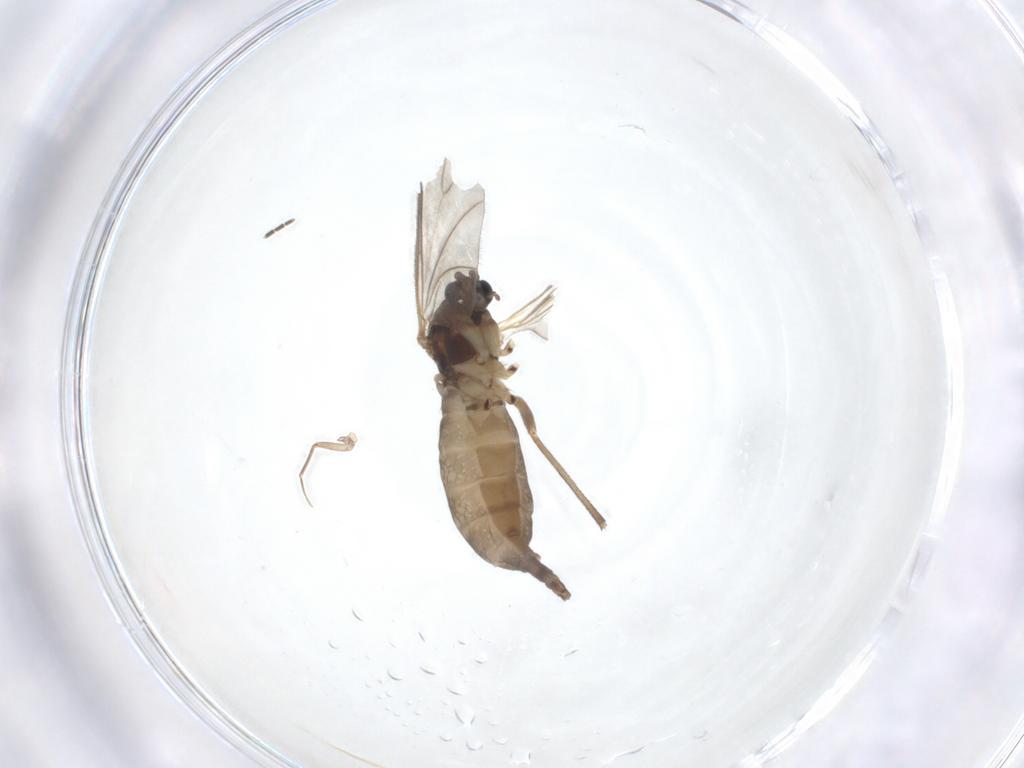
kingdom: Animalia
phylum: Arthropoda
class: Insecta
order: Diptera
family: Sciaridae
